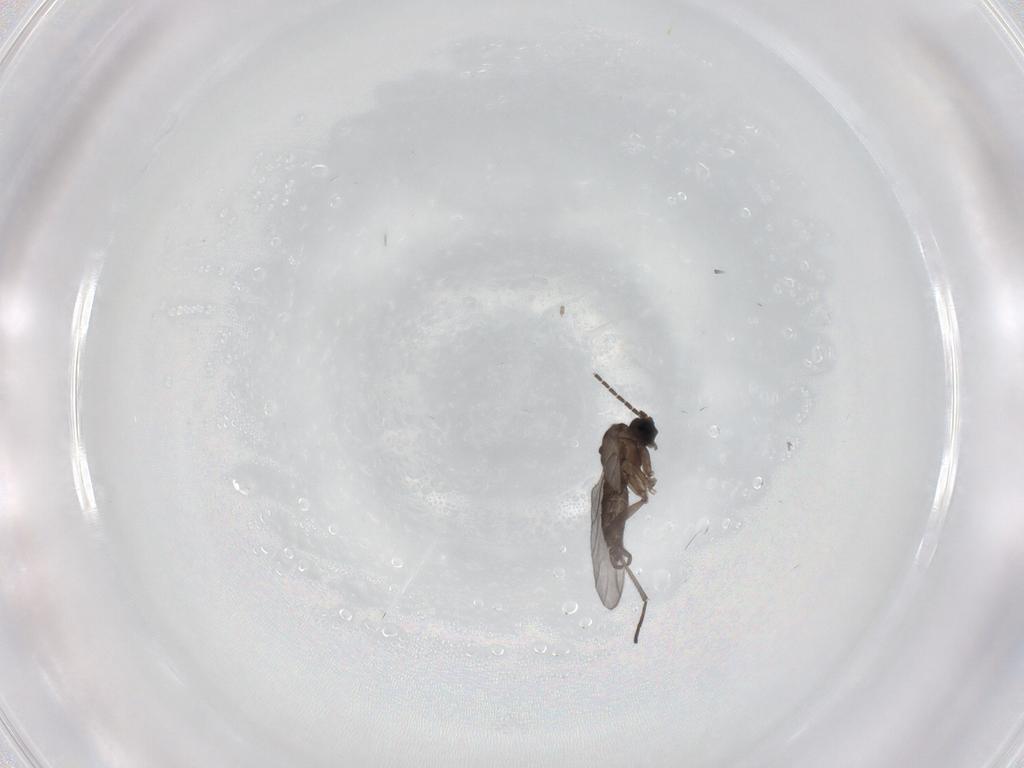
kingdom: Animalia
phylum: Arthropoda
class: Insecta
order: Diptera
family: Sciaridae
